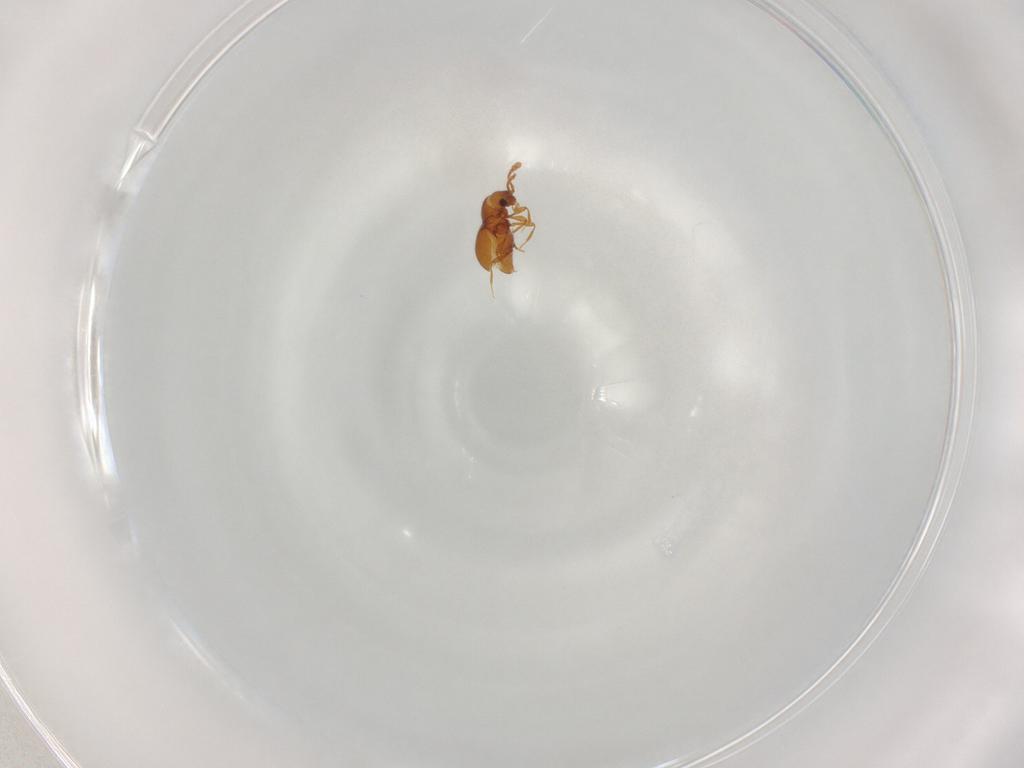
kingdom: Animalia
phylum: Arthropoda
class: Insecta
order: Coleoptera
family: Staphylinidae
